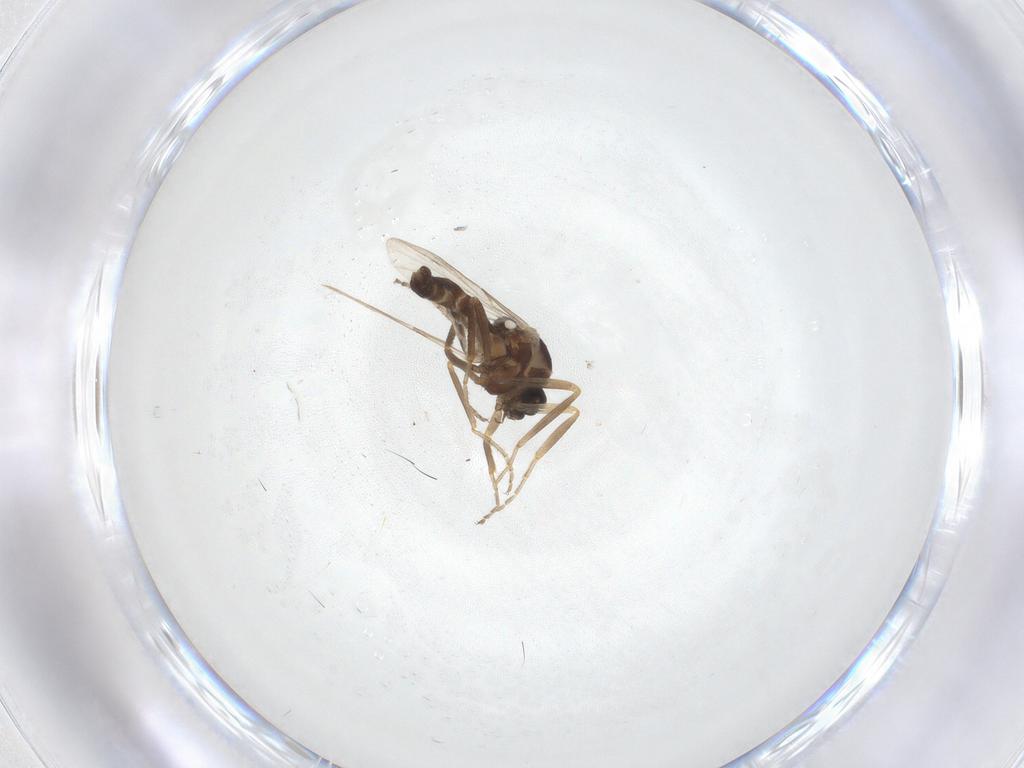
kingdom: Animalia
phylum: Arthropoda
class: Insecta
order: Diptera
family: Ceratopogonidae
